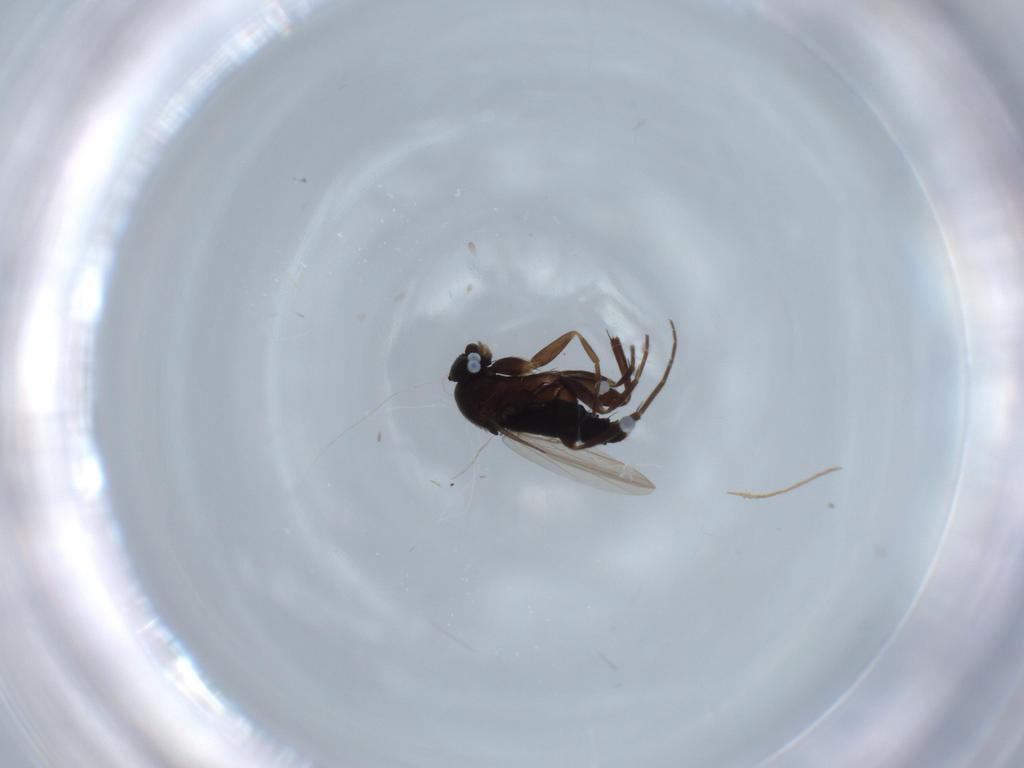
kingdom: Animalia
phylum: Arthropoda
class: Insecta
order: Diptera
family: Phoridae
